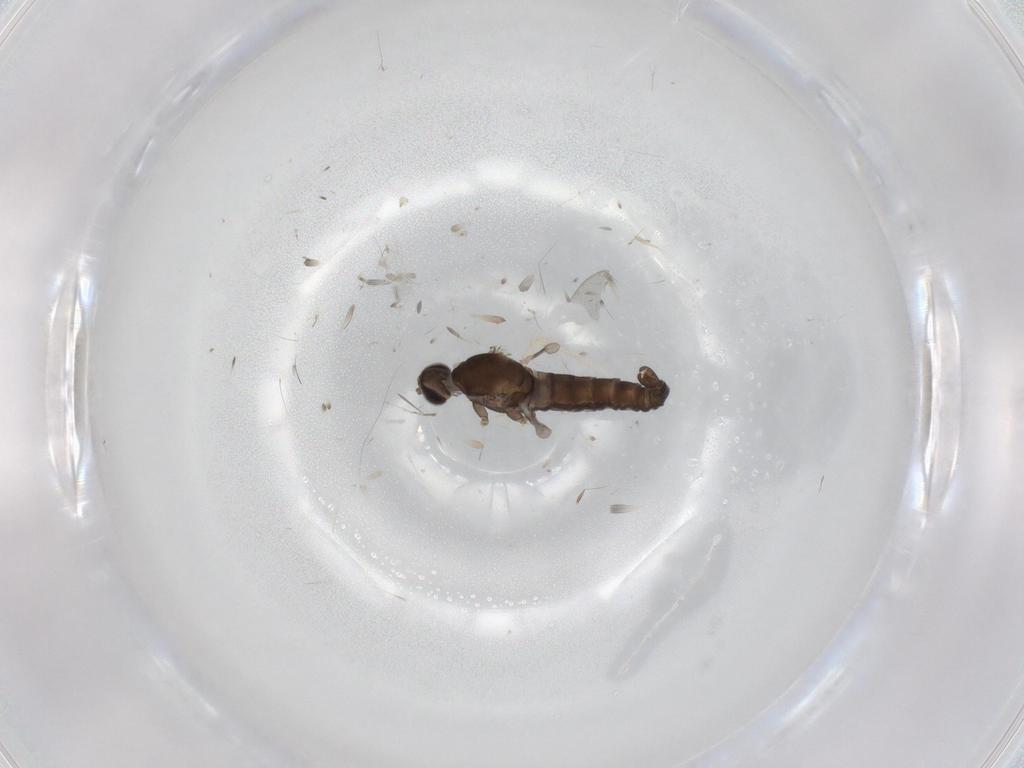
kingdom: Animalia
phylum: Arthropoda
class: Insecta
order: Diptera
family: Cecidomyiidae
